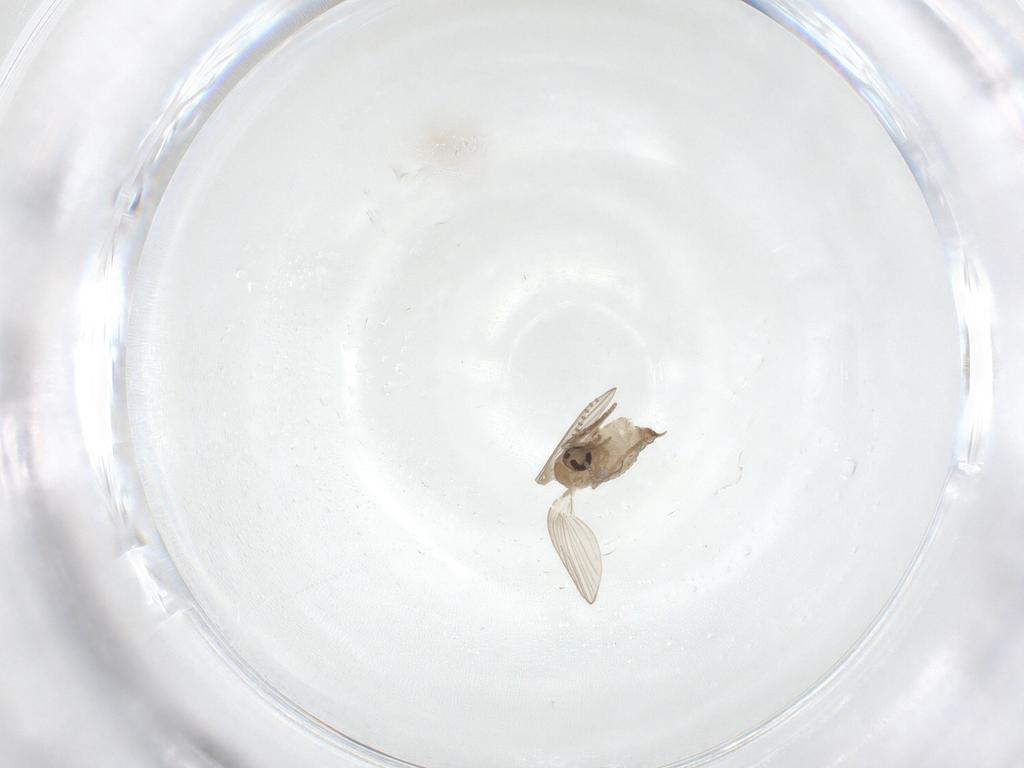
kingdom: Animalia
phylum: Arthropoda
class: Insecta
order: Diptera
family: Psychodidae
